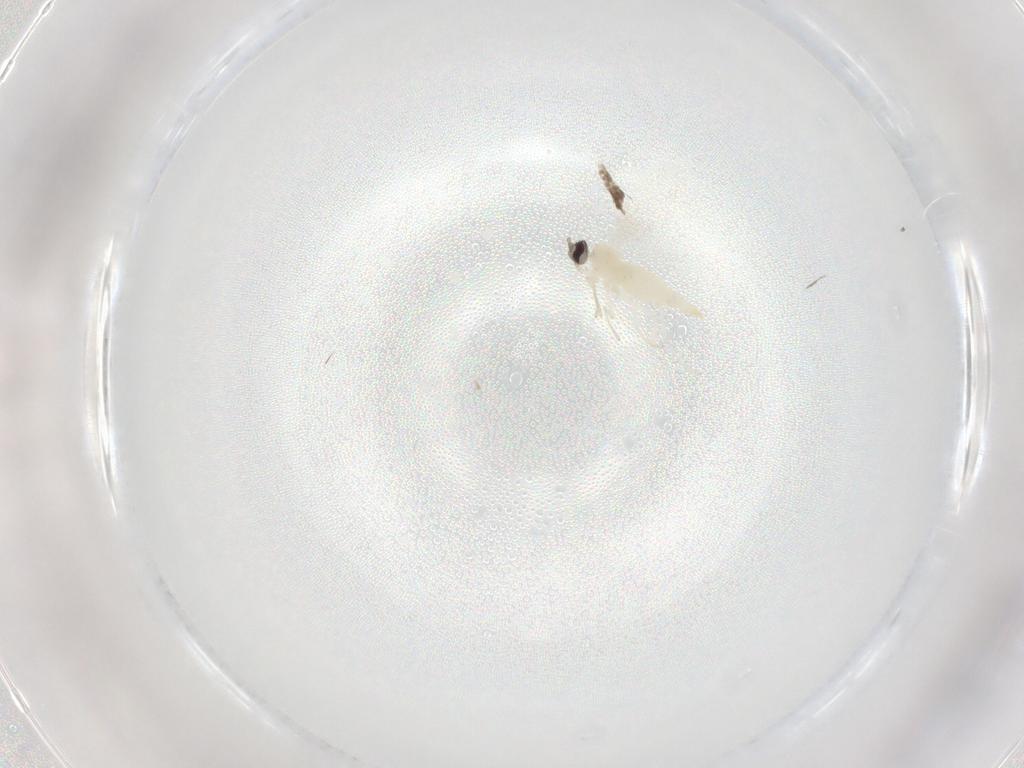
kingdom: Animalia
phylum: Arthropoda
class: Insecta
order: Diptera
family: Cecidomyiidae
